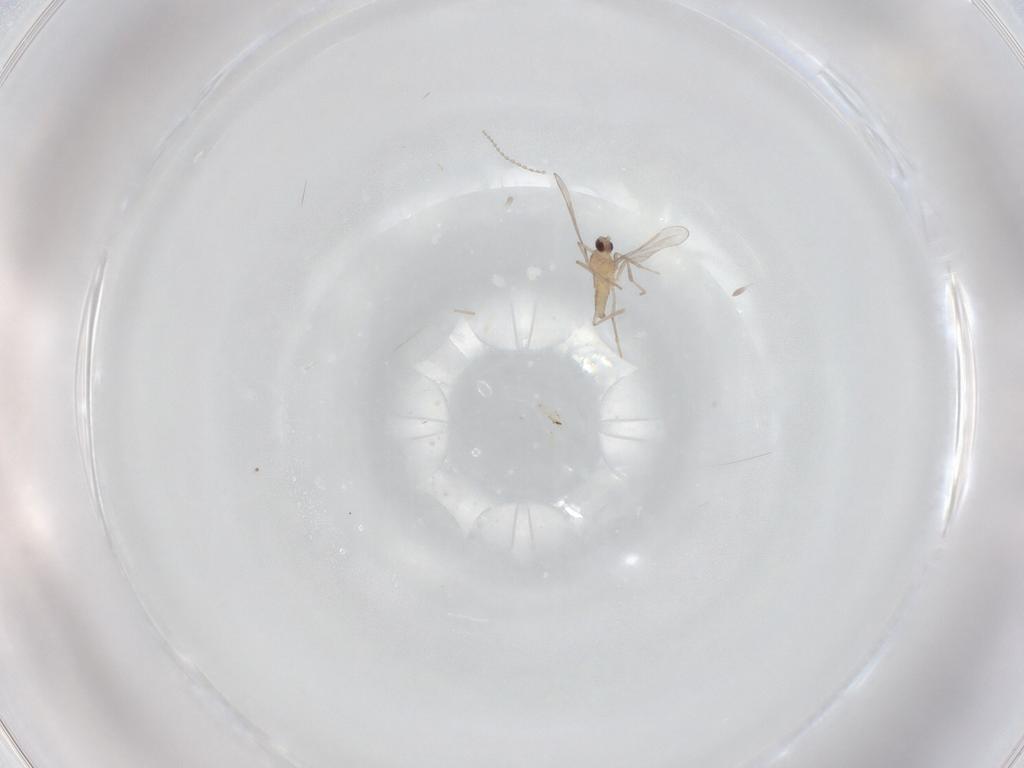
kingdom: Animalia
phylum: Arthropoda
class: Insecta
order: Diptera
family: Cecidomyiidae
